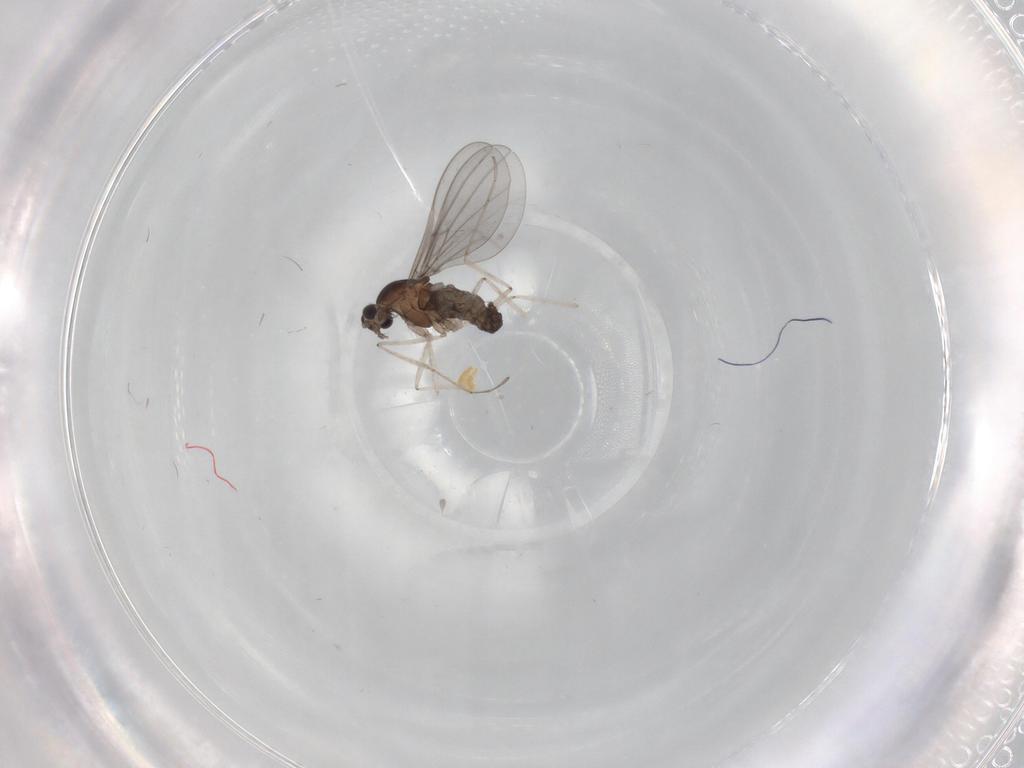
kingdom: Animalia
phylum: Arthropoda
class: Insecta
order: Diptera
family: Cecidomyiidae
